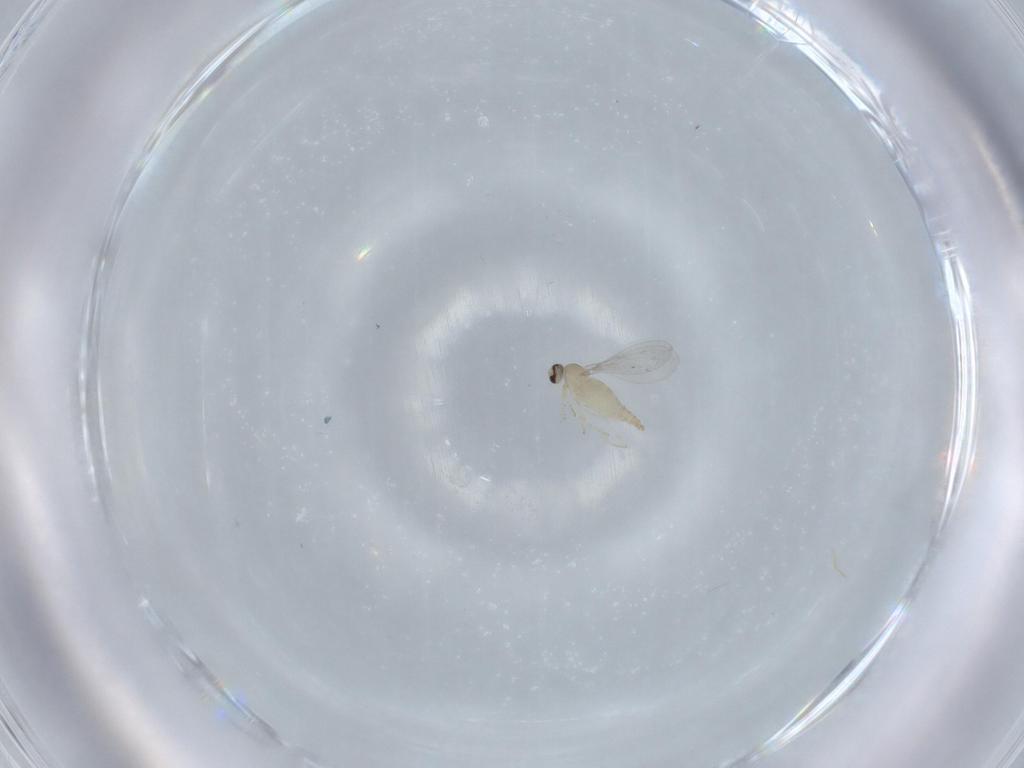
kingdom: Animalia
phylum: Arthropoda
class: Insecta
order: Diptera
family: Cecidomyiidae
